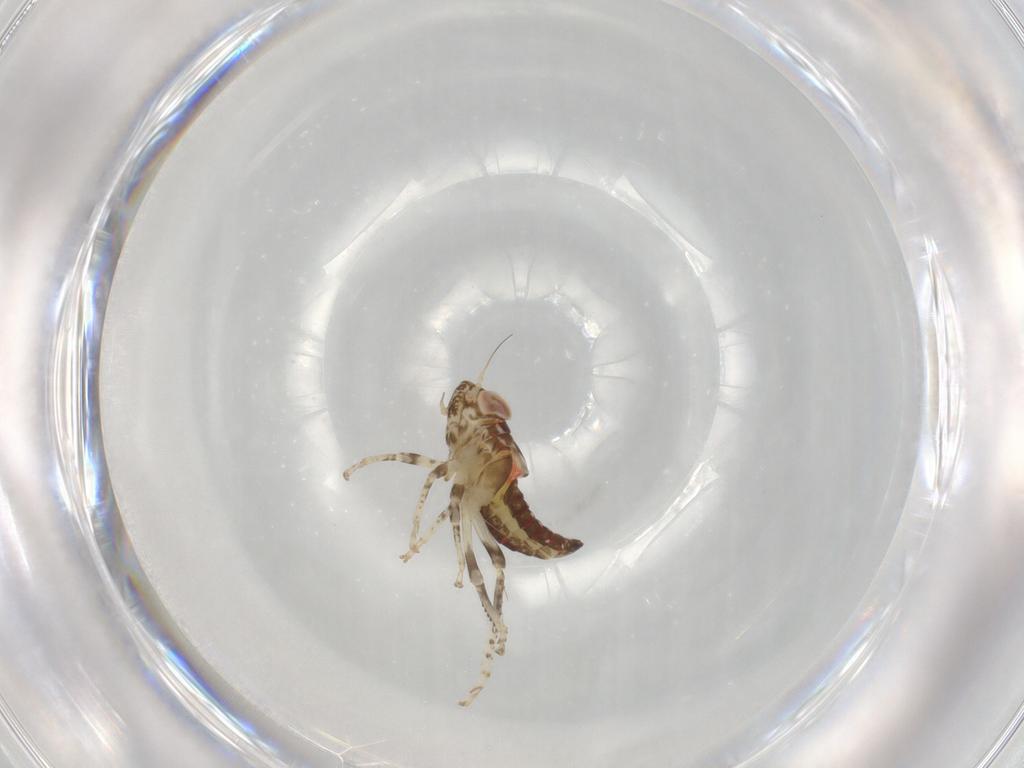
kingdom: Animalia
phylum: Arthropoda
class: Insecta
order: Hemiptera
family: Cicadellidae
